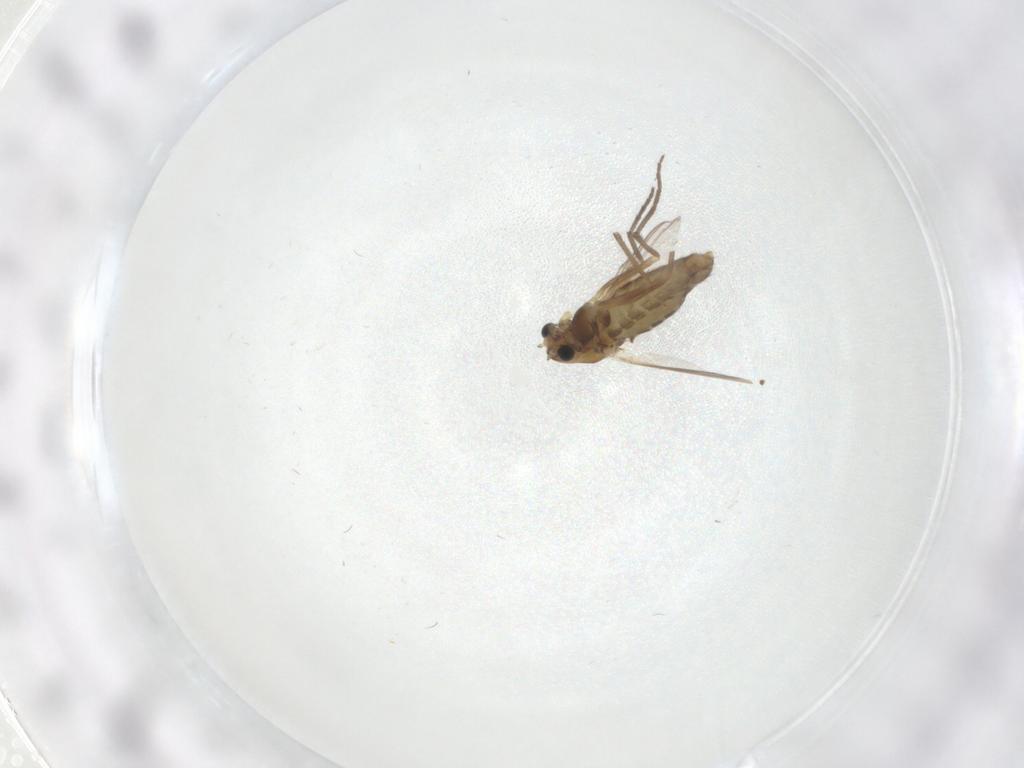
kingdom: Animalia
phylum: Arthropoda
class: Insecta
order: Diptera
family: Chironomidae
